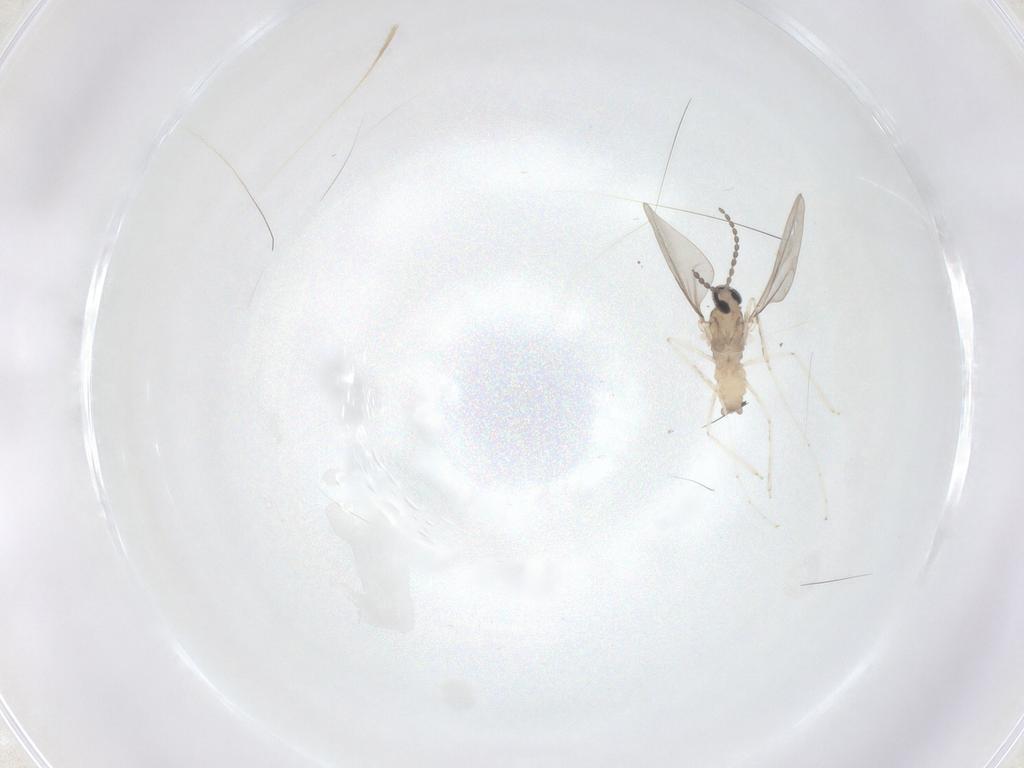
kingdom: Animalia
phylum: Arthropoda
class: Insecta
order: Diptera
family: Cecidomyiidae
